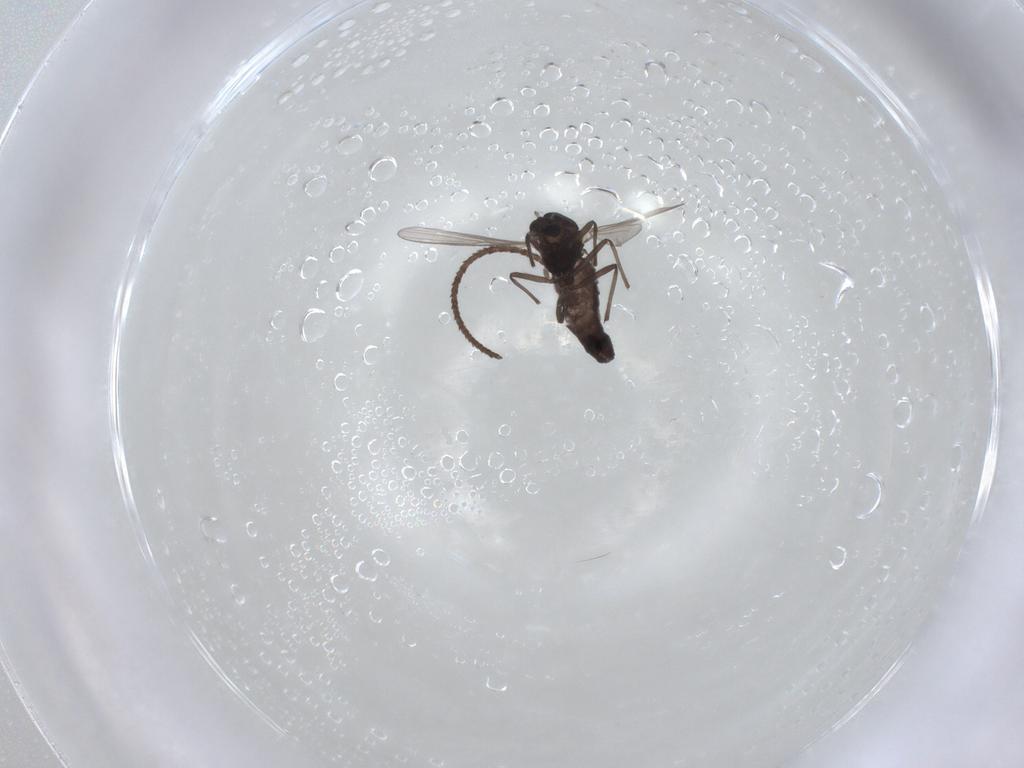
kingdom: Animalia
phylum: Arthropoda
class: Insecta
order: Diptera
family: Chironomidae
